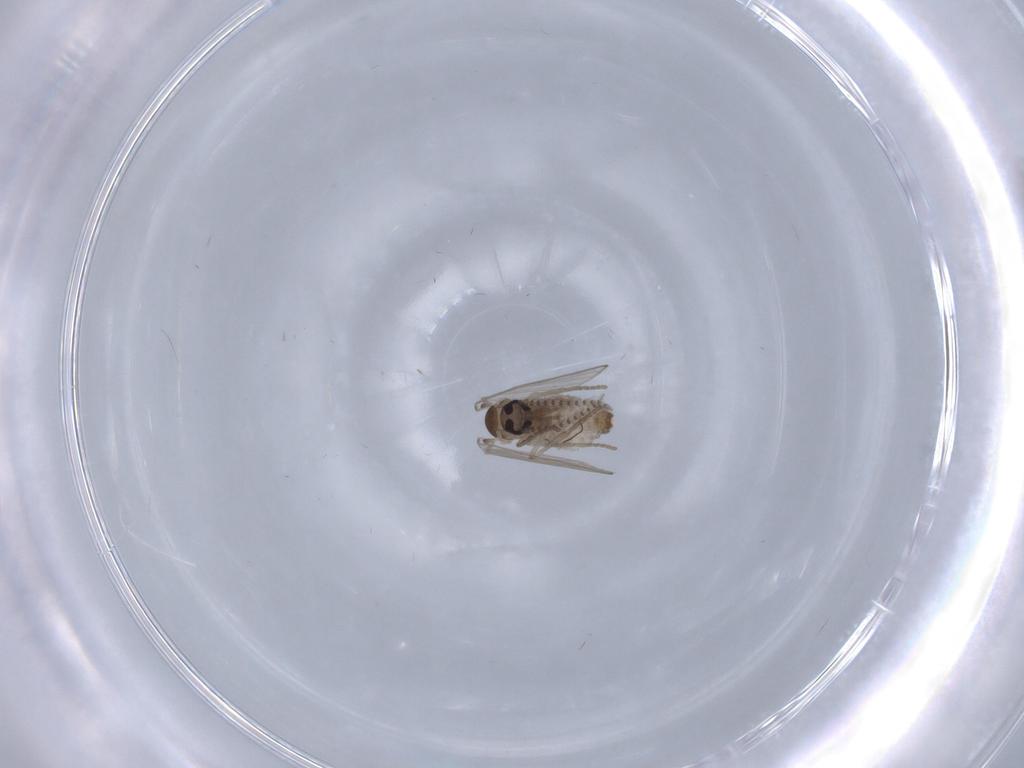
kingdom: Animalia
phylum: Arthropoda
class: Insecta
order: Diptera
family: Psychodidae
